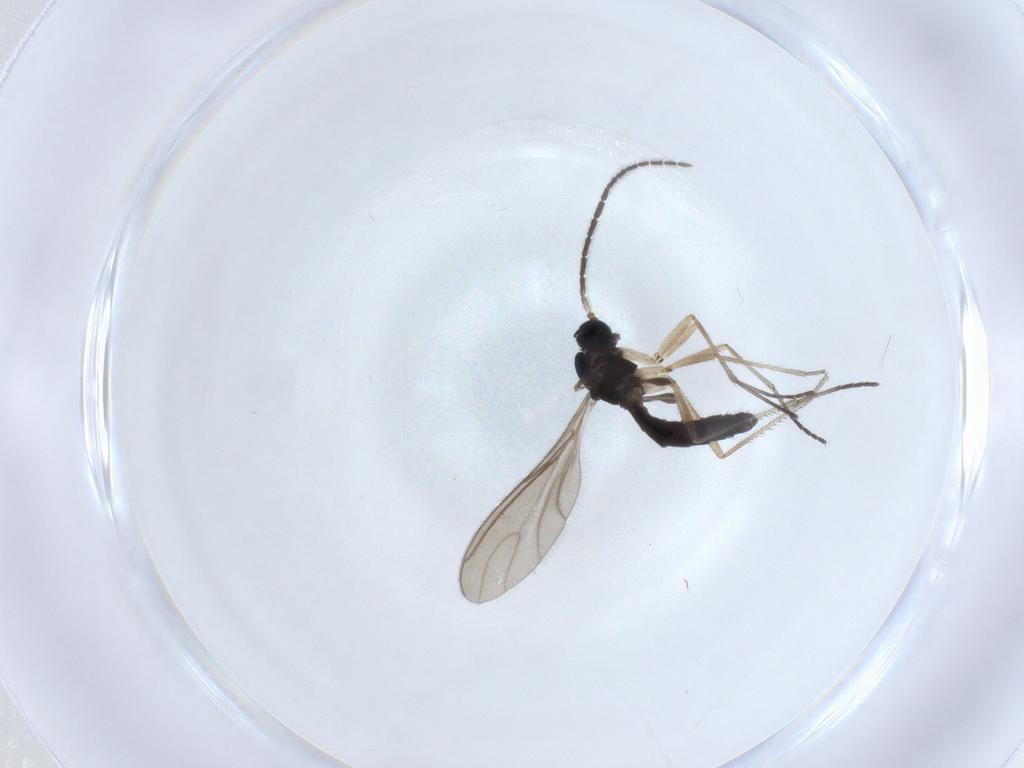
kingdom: Animalia
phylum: Arthropoda
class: Insecta
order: Diptera
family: Sciaridae
